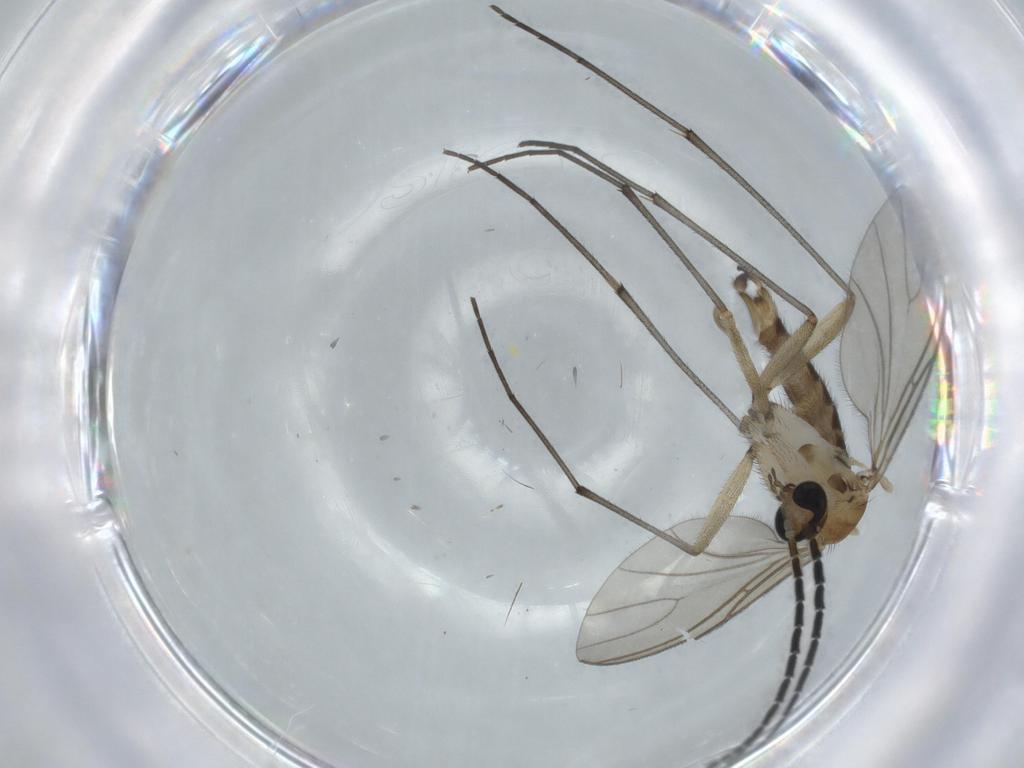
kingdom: Animalia
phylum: Arthropoda
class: Insecta
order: Diptera
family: Sciaridae
